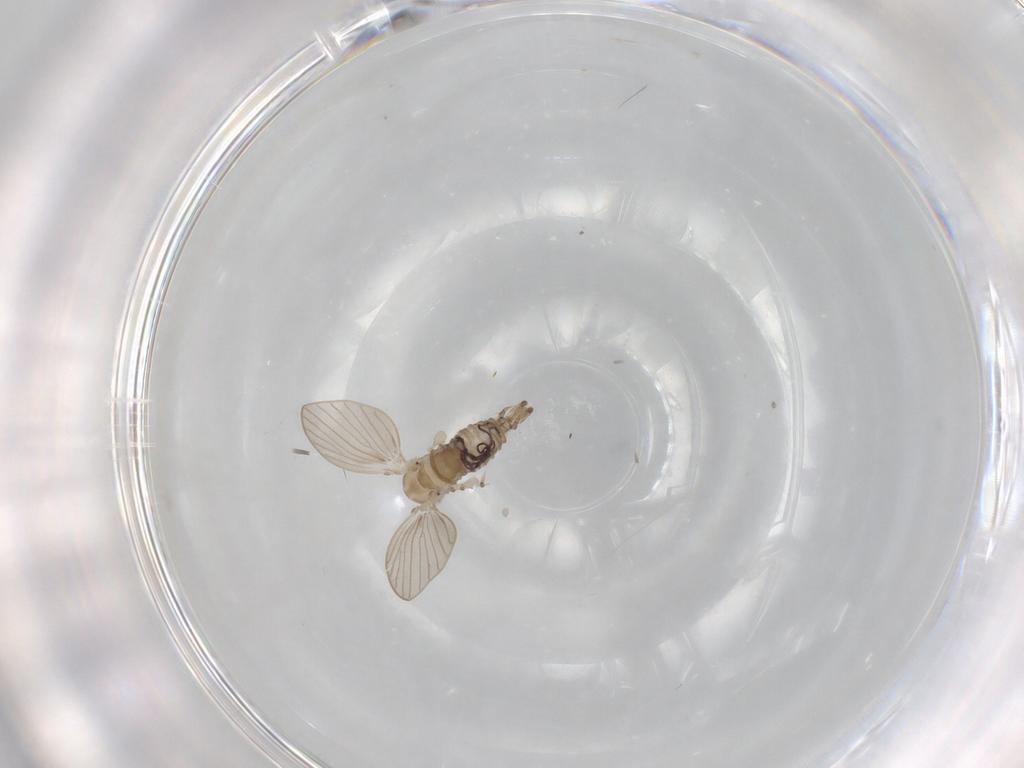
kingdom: Animalia
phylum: Arthropoda
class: Insecta
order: Diptera
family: Psychodidae
